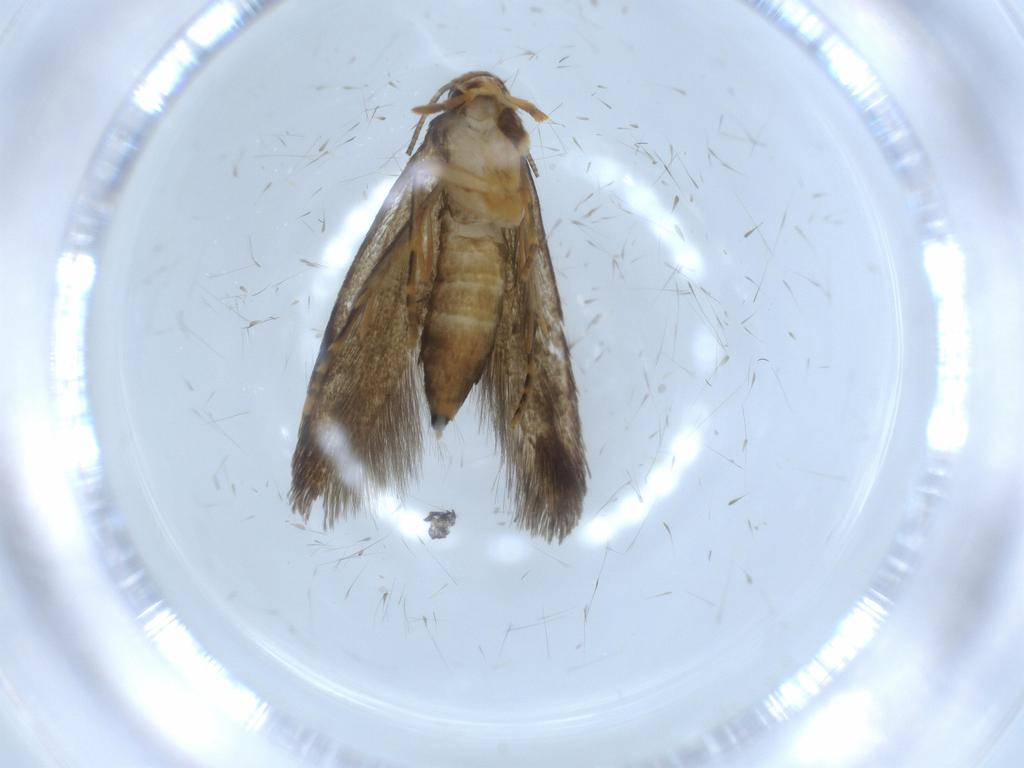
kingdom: Animalia
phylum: Arthropoda
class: Insecta
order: Lepidoptera
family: Tineidae
